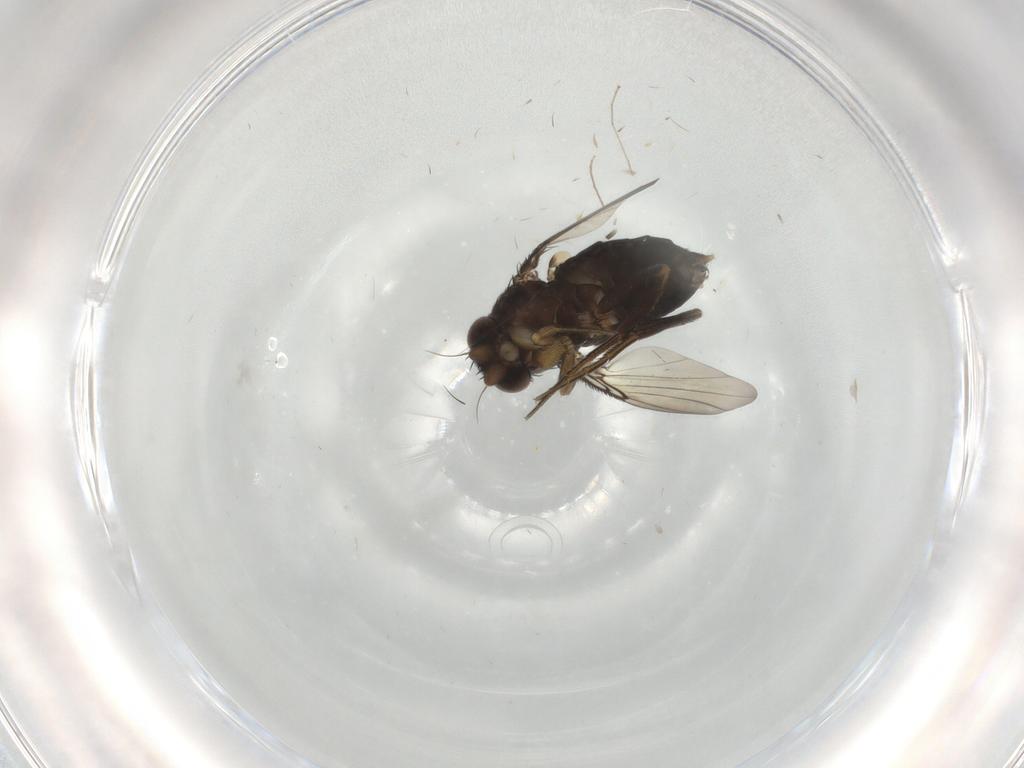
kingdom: Animalia
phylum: Arthropoda
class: Insecta
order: Diptera
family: Phoridae
